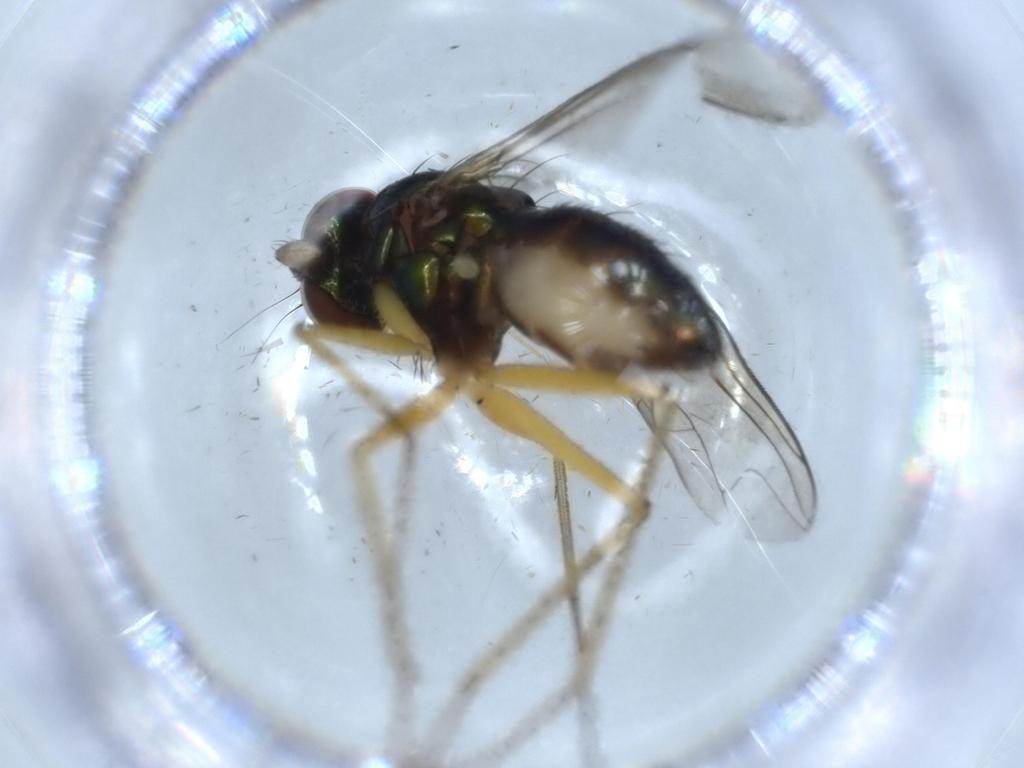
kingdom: Animalia
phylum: Arthropoda
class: Insecta
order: Diptera
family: Dolichopodidae
